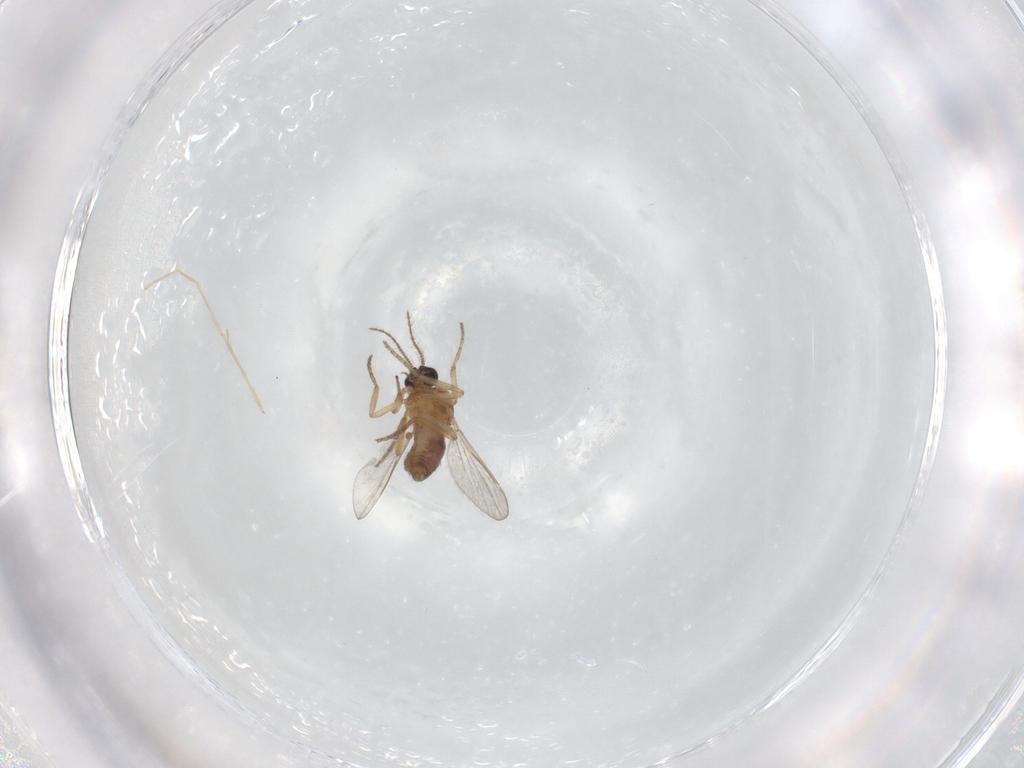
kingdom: Animalia
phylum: Arthropoda
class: Insecta
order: Diptera
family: Chironomidae
